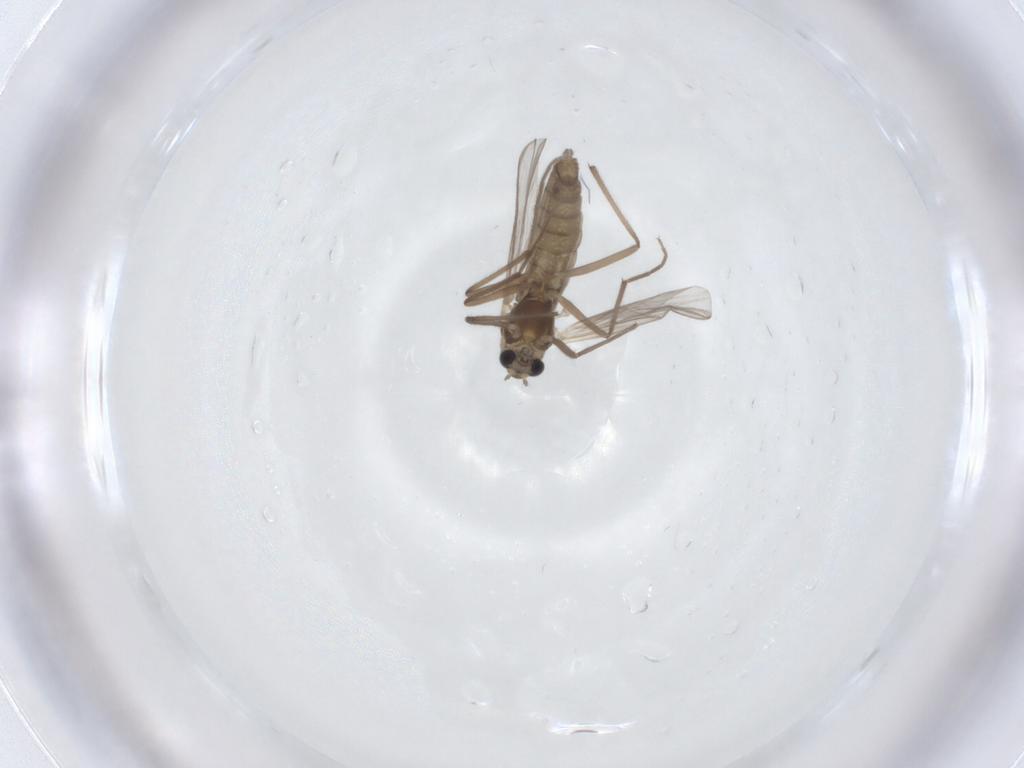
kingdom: Animalia
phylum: Arthropoda
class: Insecta
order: Diptera
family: Chironomidae
